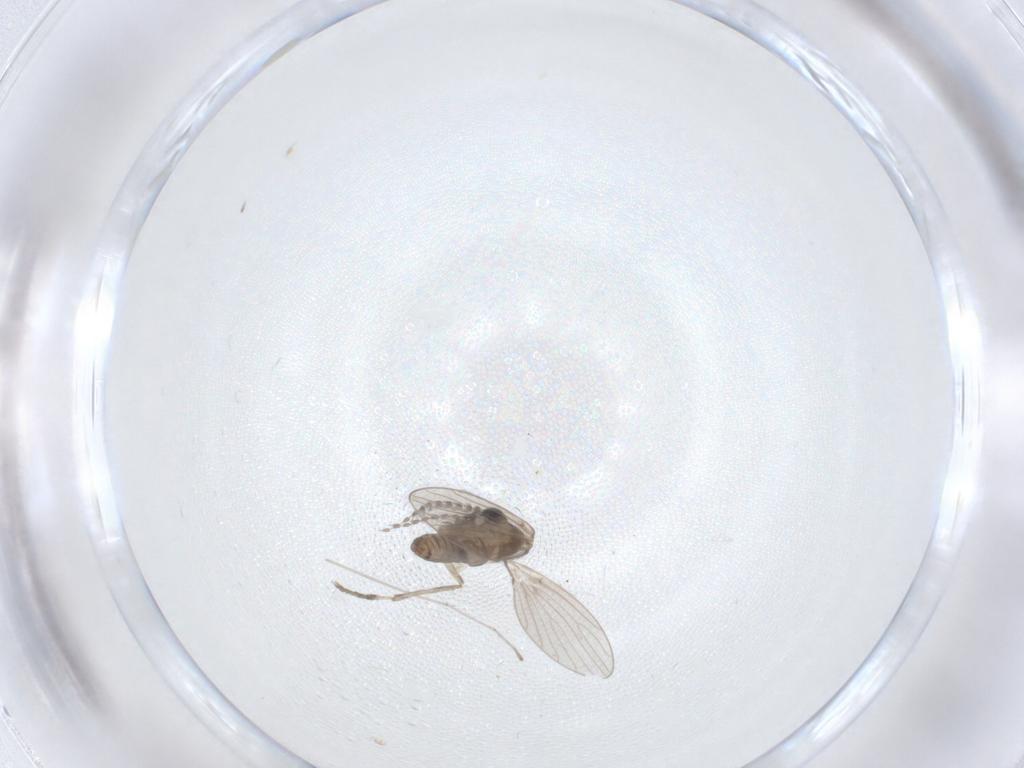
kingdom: Animalia
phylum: Arthropoda
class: Insecta
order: Diptera
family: Psychodidae
